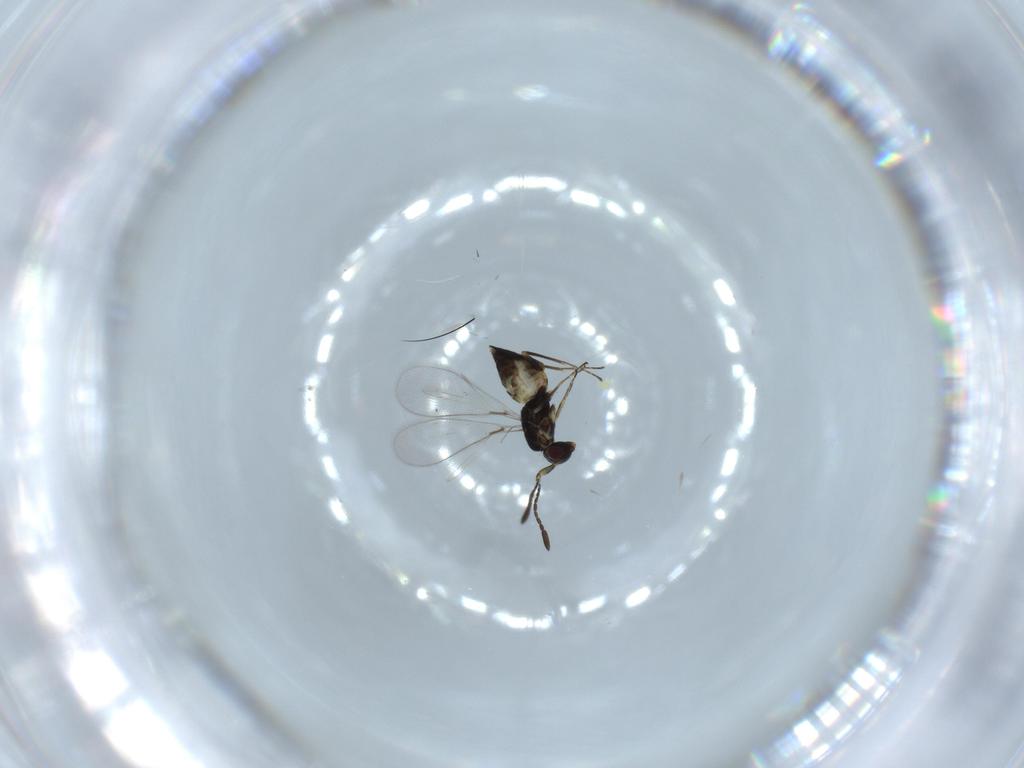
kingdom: Animalia
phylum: Arthropoda
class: Insecta
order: Hymenoptera
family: Mymaridae
